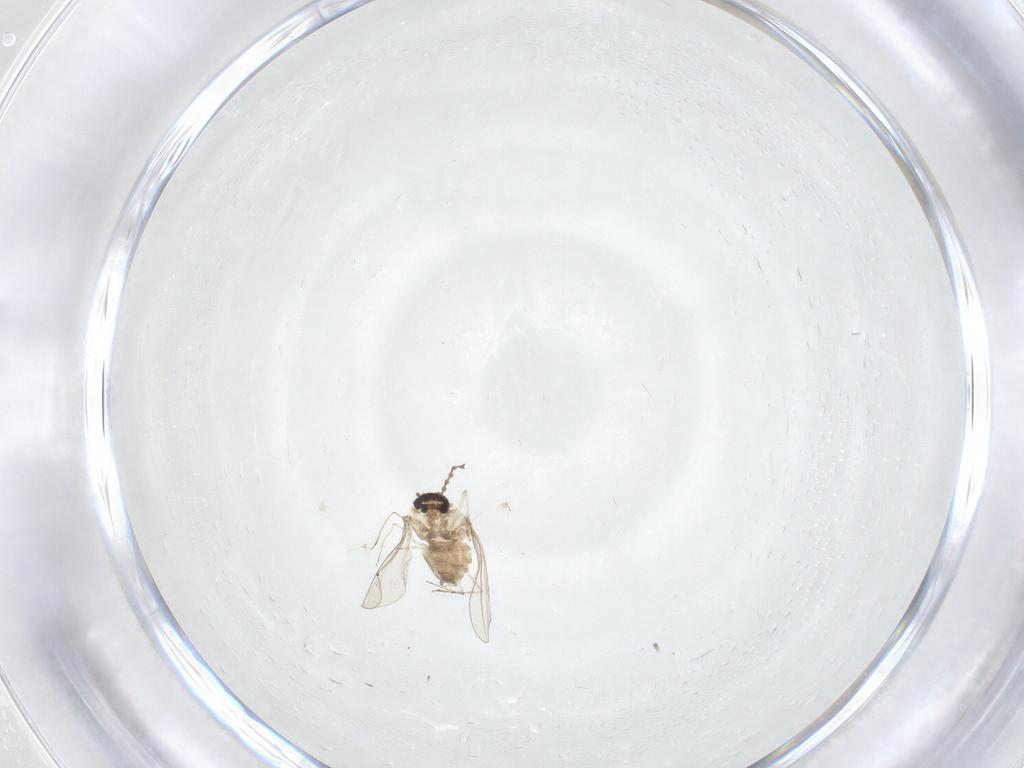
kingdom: Animalia
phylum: Arthropoda
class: Insecta
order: Diptera
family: Cecidomyiidae
